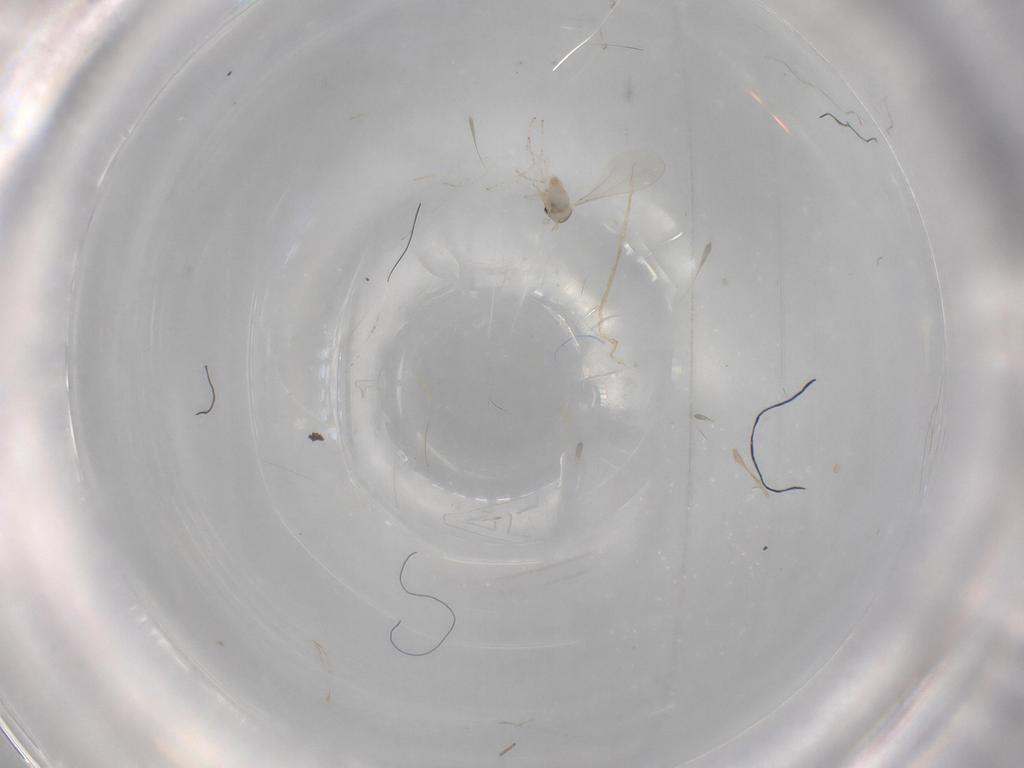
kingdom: Animalia
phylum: Arthropoda
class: Insecta
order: Diptera
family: Cecidomyiidae
